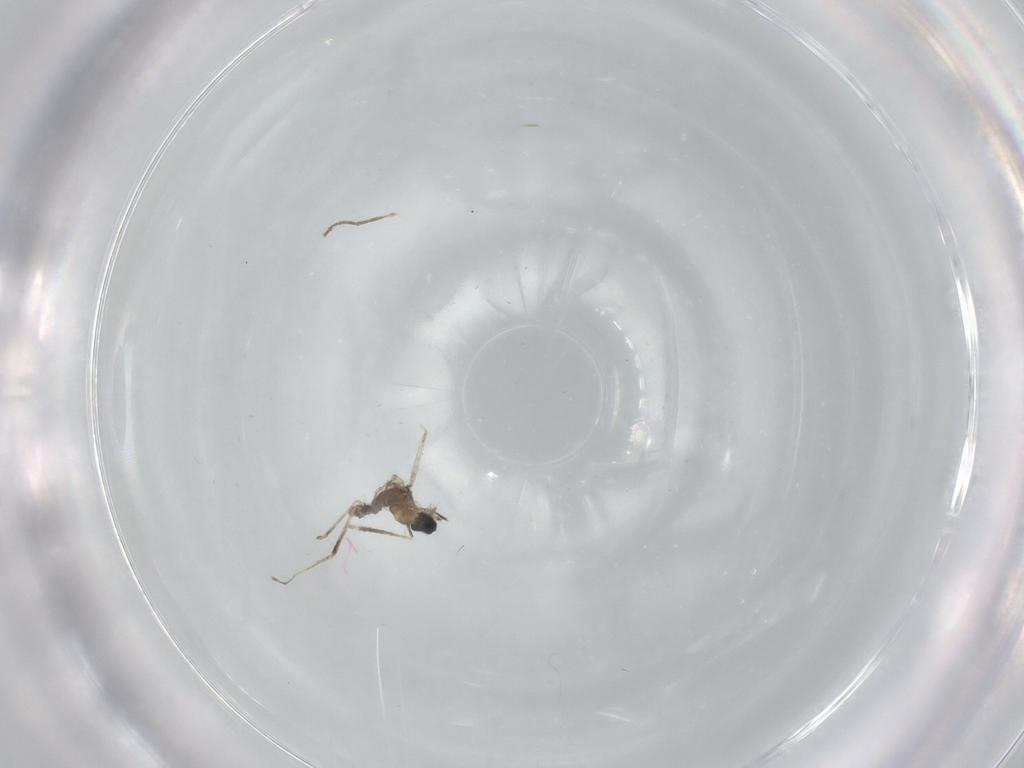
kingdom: Animalia
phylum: Arthropoda
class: Insecta
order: Diptera
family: Cecidomyiidae
